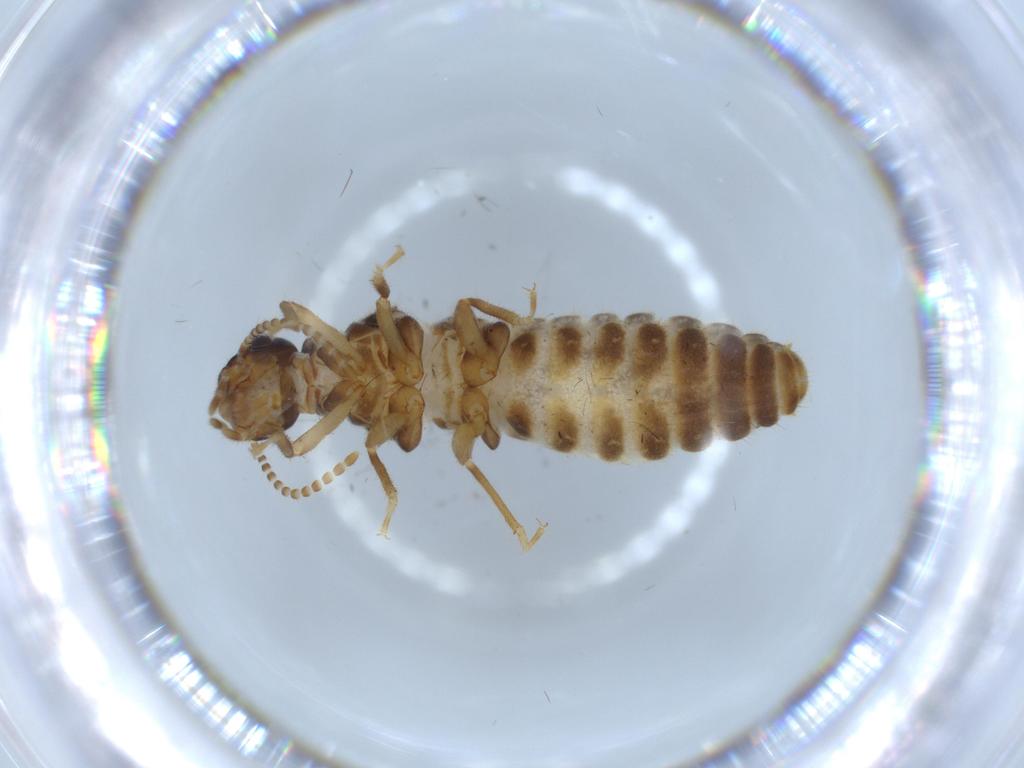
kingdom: Animalia
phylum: Arthropoda
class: Insecta
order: Blattodea
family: Termitidae
